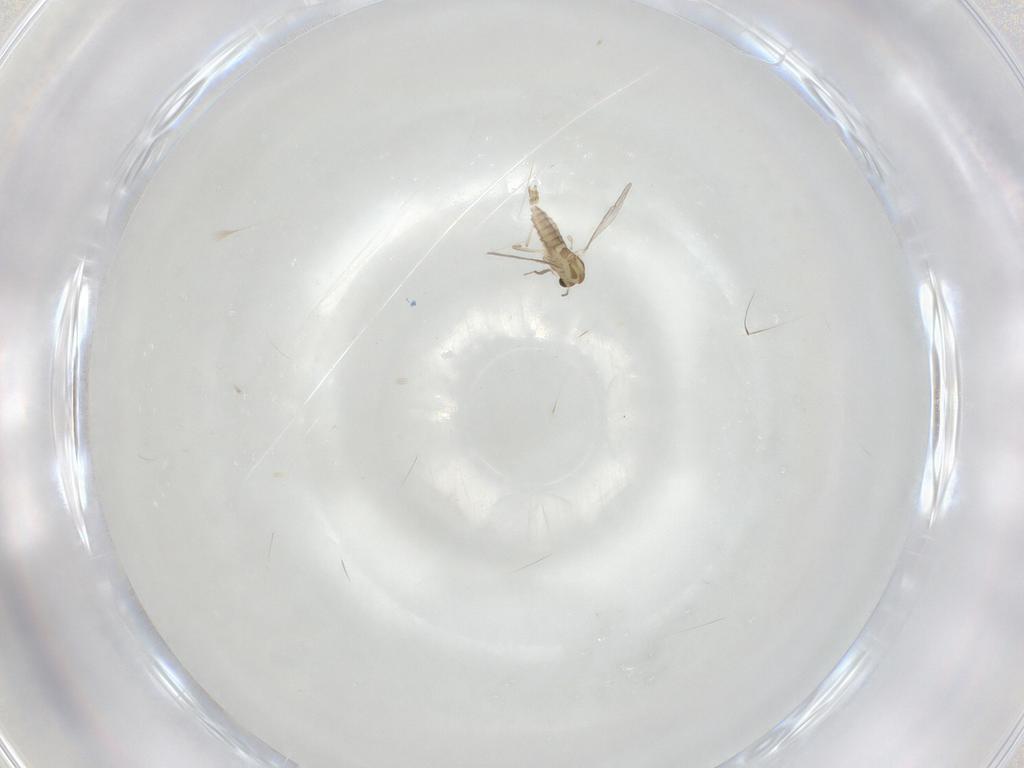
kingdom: Animalia
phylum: Arthropoda
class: Insecta
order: Diptera
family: Chironomidae
